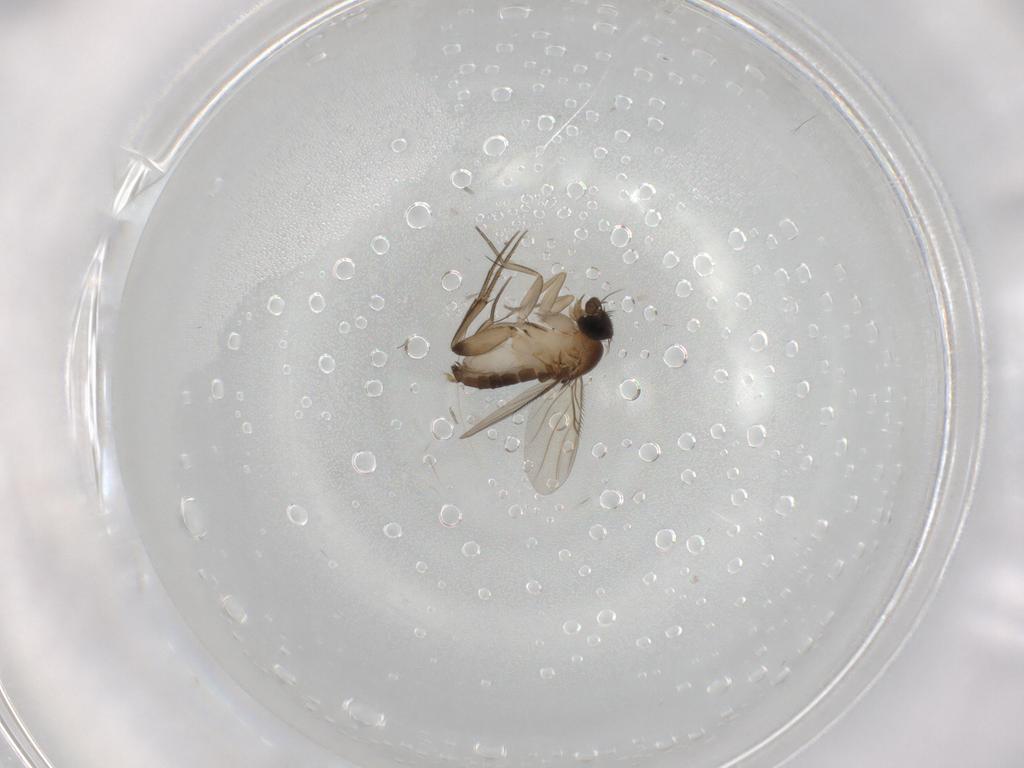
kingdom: Animalia
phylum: Arthropoda
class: Insecta
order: Diptera
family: Phoridae
